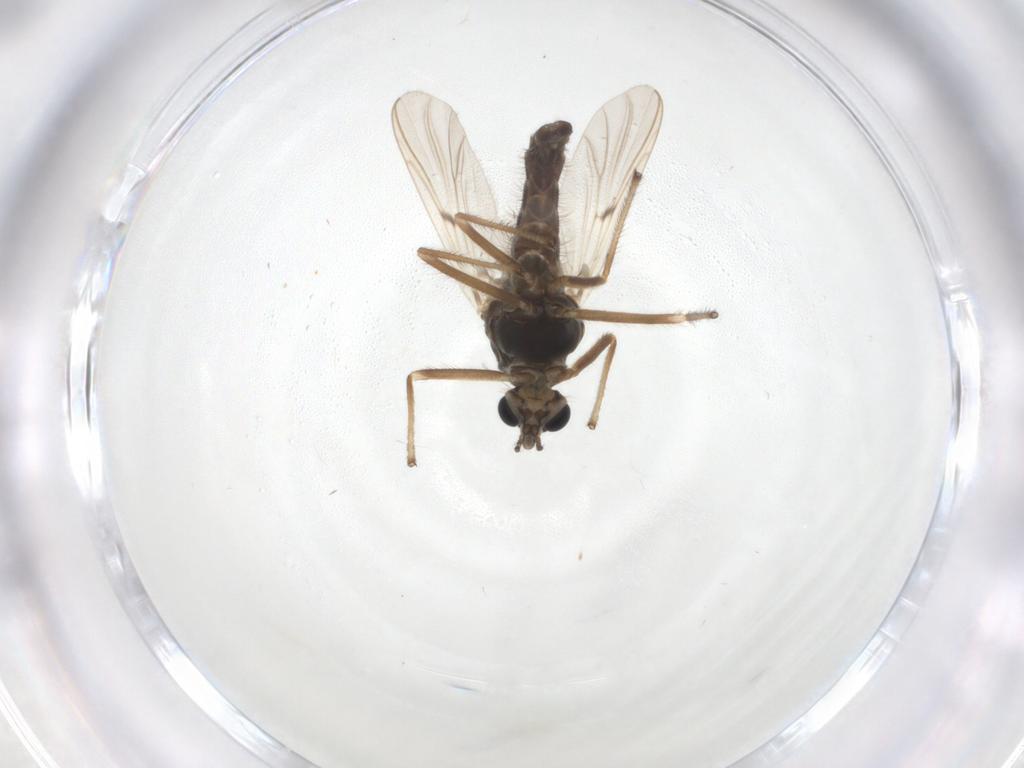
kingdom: Animalia
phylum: Arthropoda
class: Insecta
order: Diptera
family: Chironomidae
